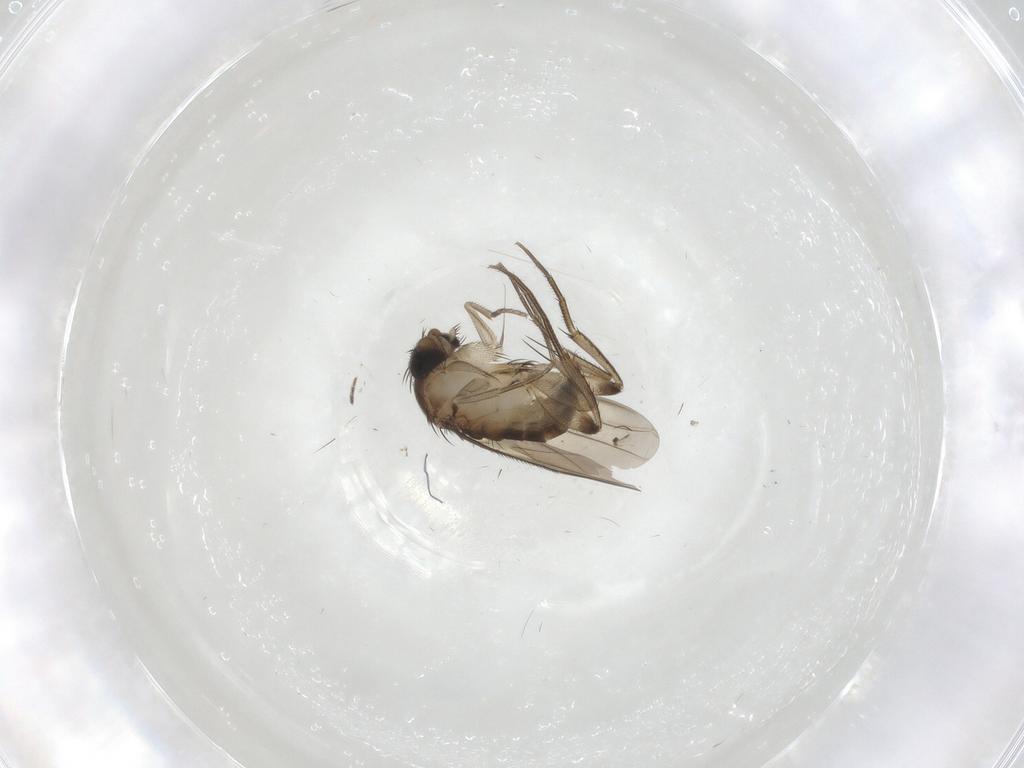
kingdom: Animalia
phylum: Arthropoda
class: Insecta
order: Diptera
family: Phoridae
